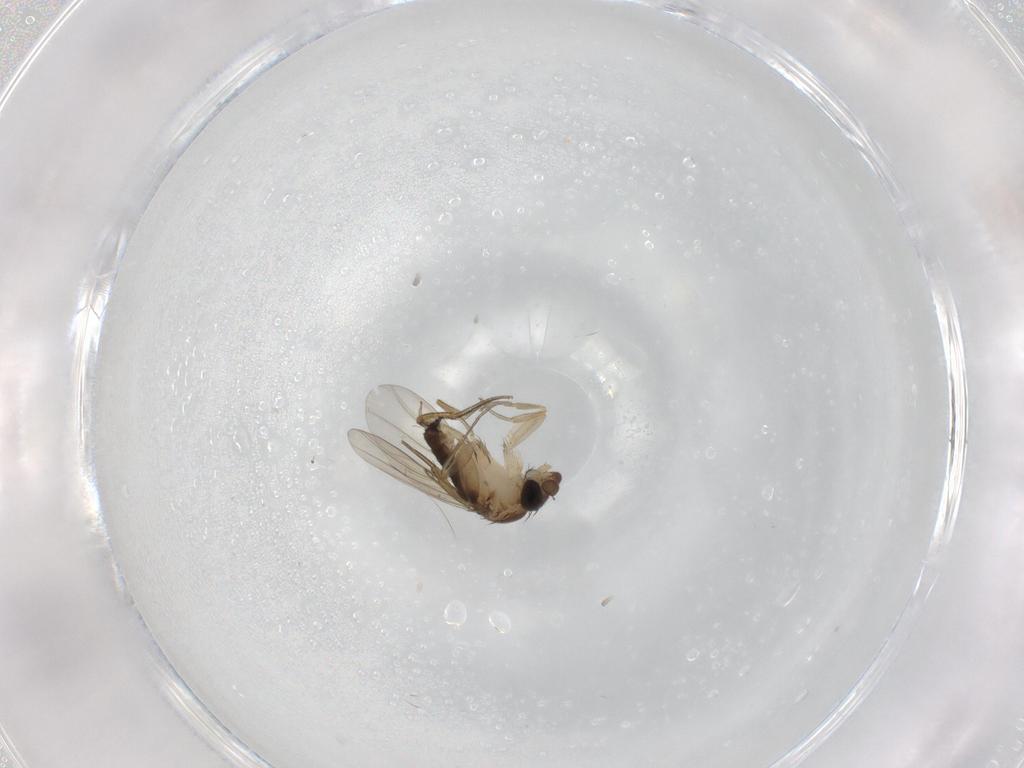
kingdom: Animalia
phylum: Arthropoda
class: Insecta
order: Diptera
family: Phoridae
